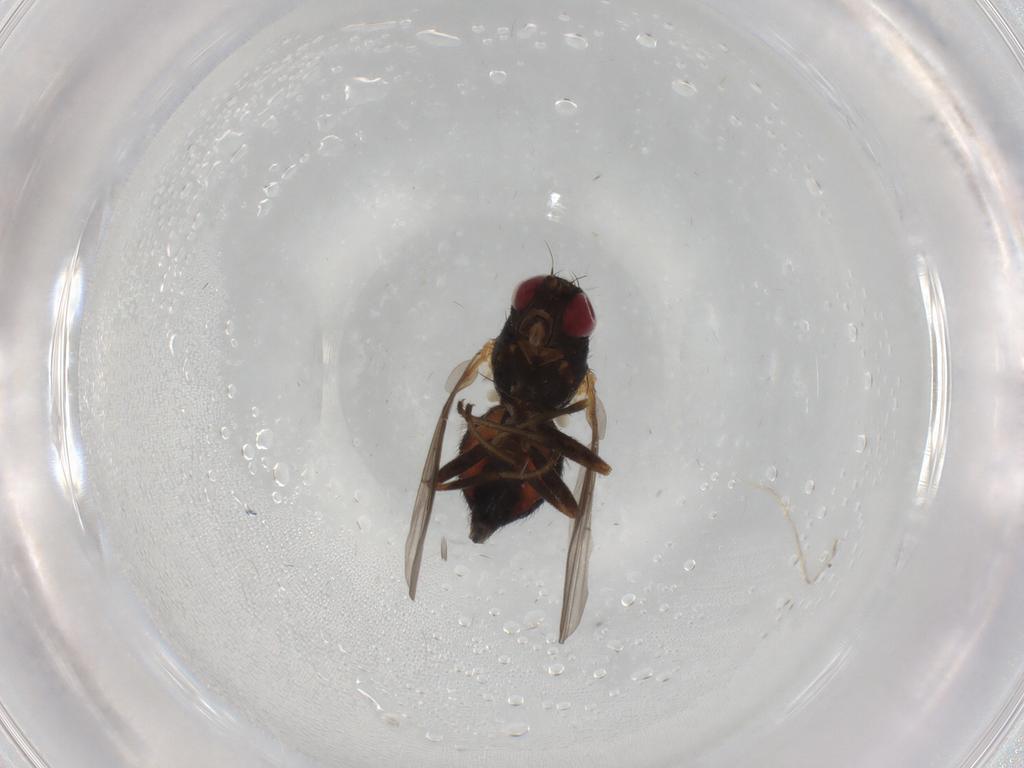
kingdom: Animalia
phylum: Arthropoda
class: Insecta
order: Diptera
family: Agromyzidae
